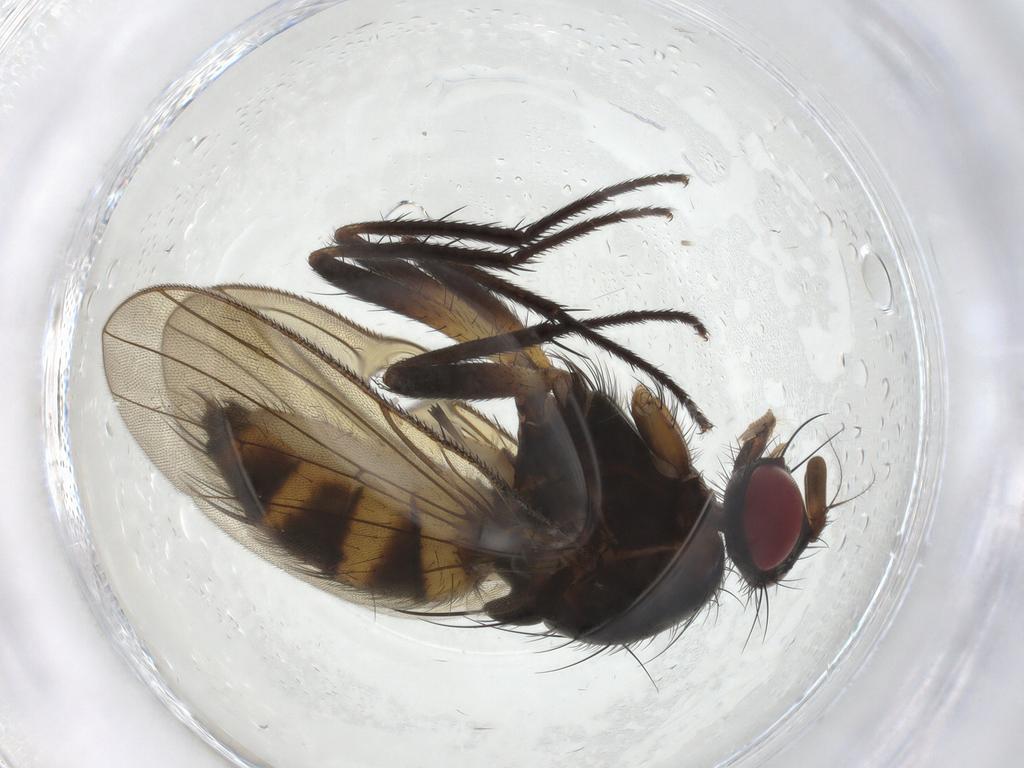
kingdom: Animalia
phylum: Arthropoda
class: Insecta
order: Diptera
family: Anthomyiidae
